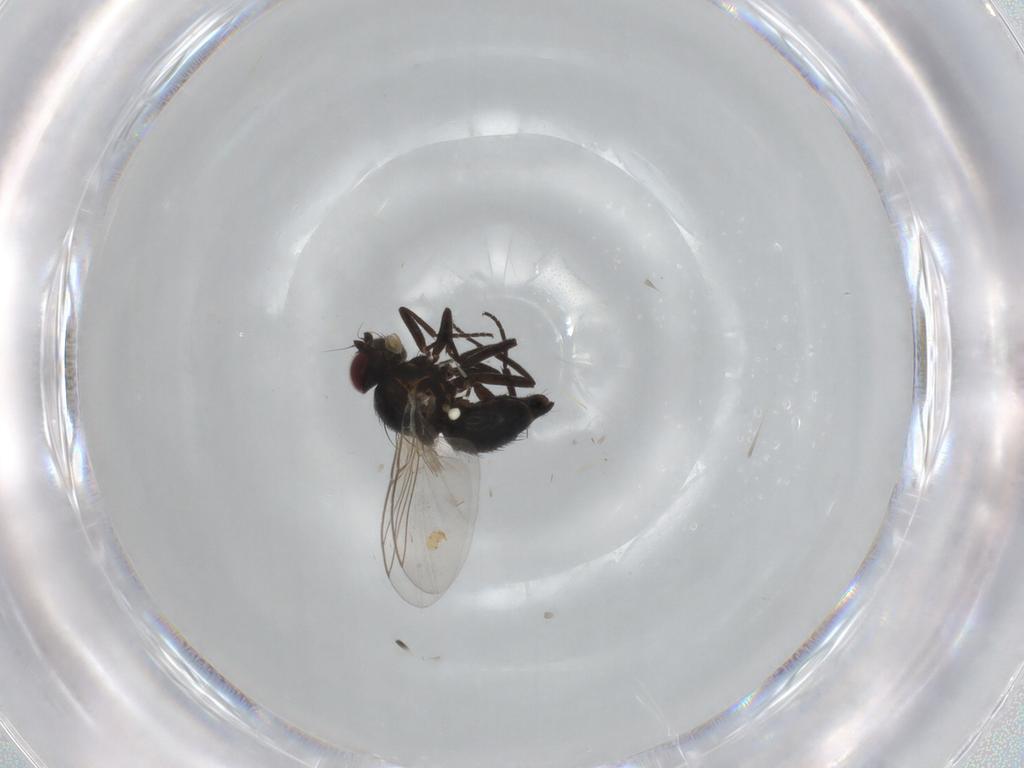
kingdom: Animalia
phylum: Arthropoda
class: Insecta
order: Diptera
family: Agromyzidae
